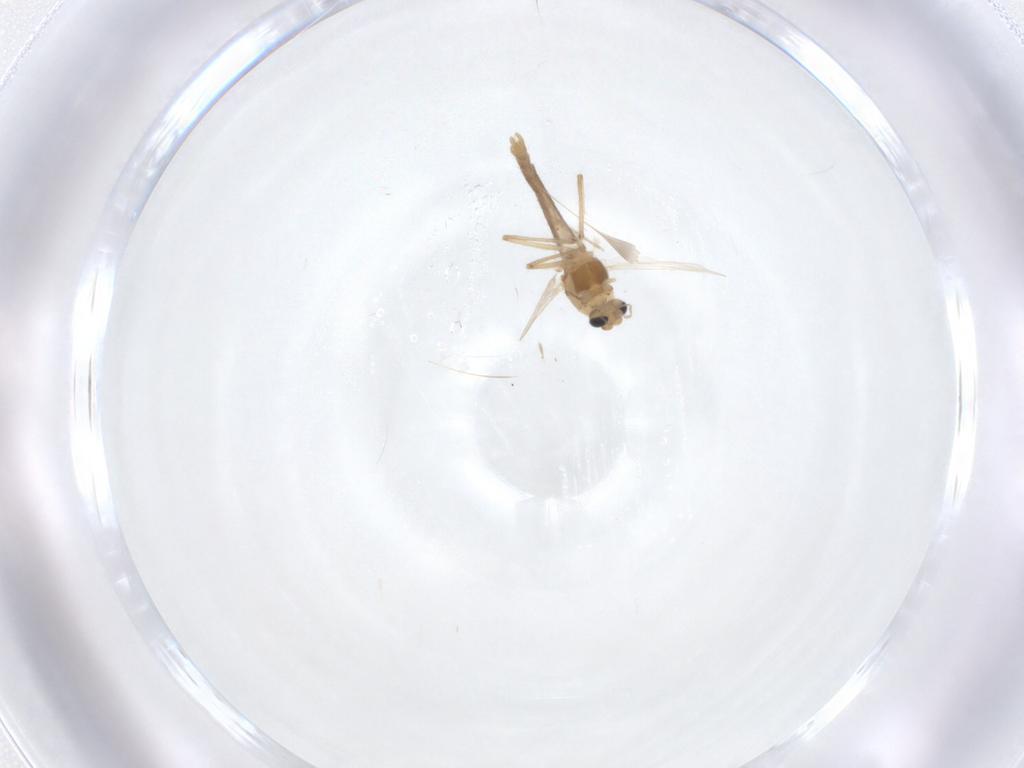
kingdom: Animalia
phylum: Arthropoda
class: Insecta
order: Diptera
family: Chironomidae
